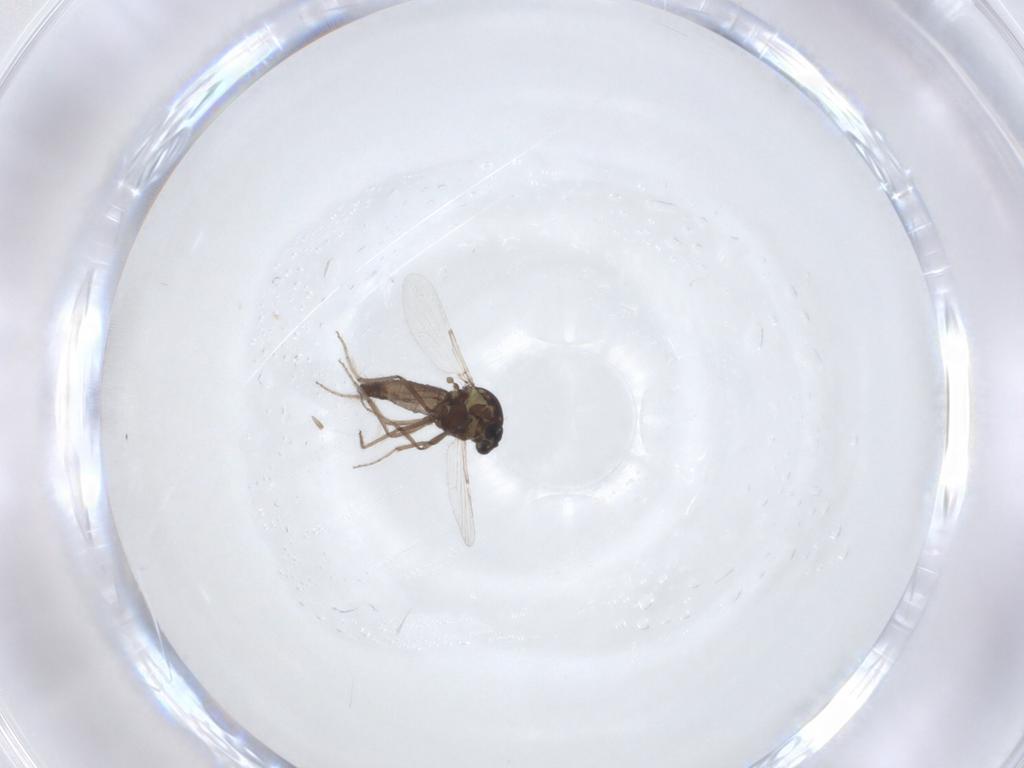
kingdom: Animalia
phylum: Arthropoda
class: Insecta
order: Diptera
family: Ceratopogonidae
